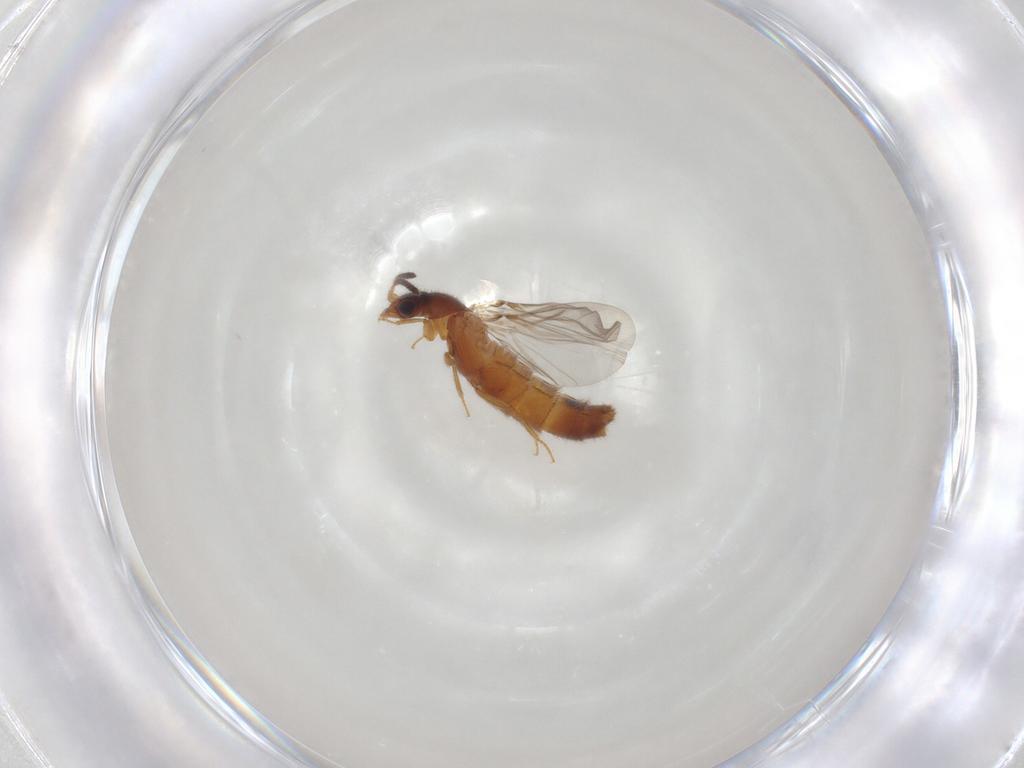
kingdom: Animalia
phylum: Arthropoda
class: Insecta
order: Coleoptera
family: Staphylinidae
